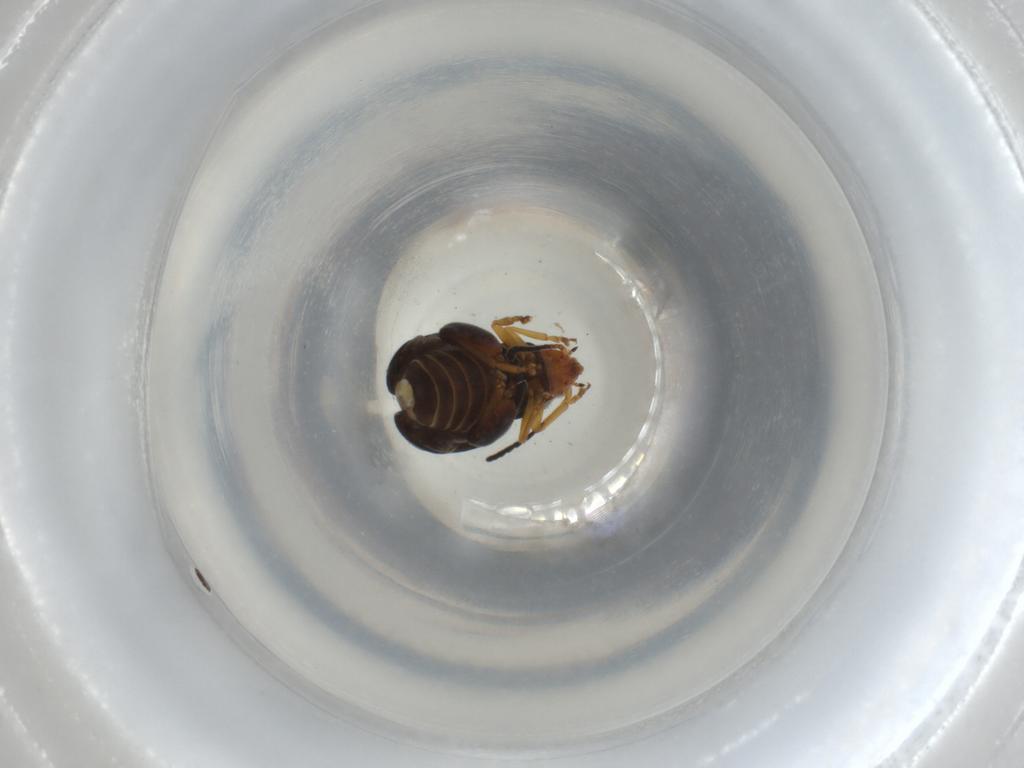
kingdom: Animalia
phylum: Arthropoda
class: Insecta
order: Coleoptera
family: Chrysomelidae
